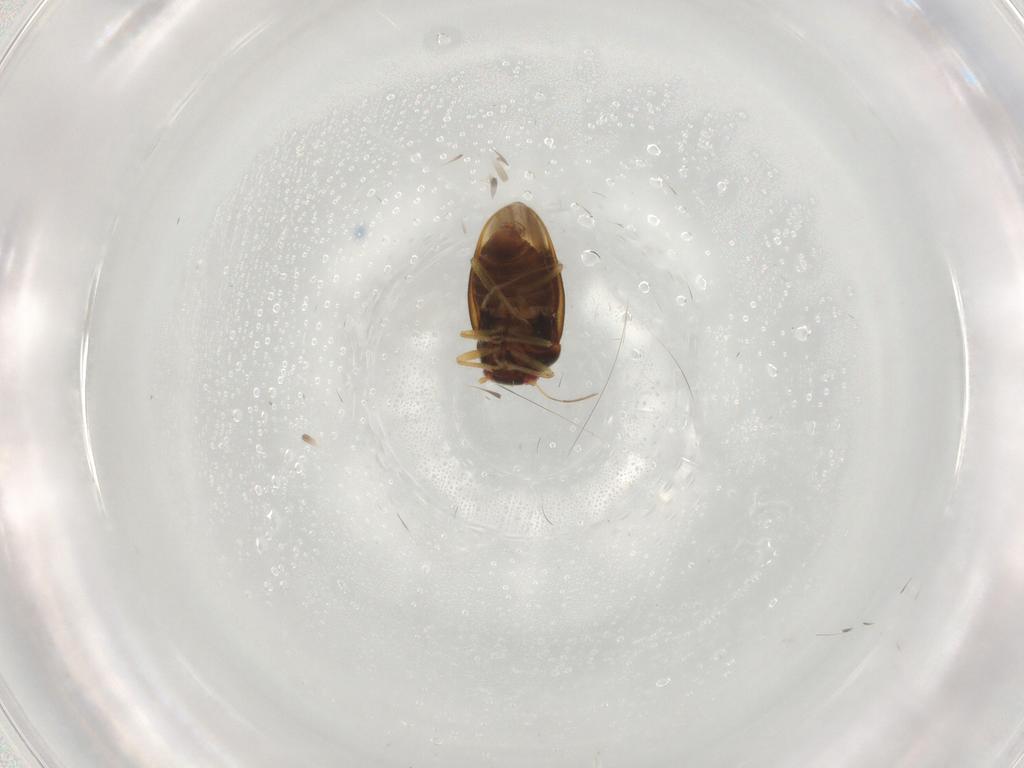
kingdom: Animalia
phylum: Arthropoda
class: Insecta
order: Hemiptera
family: Schizopteridae
